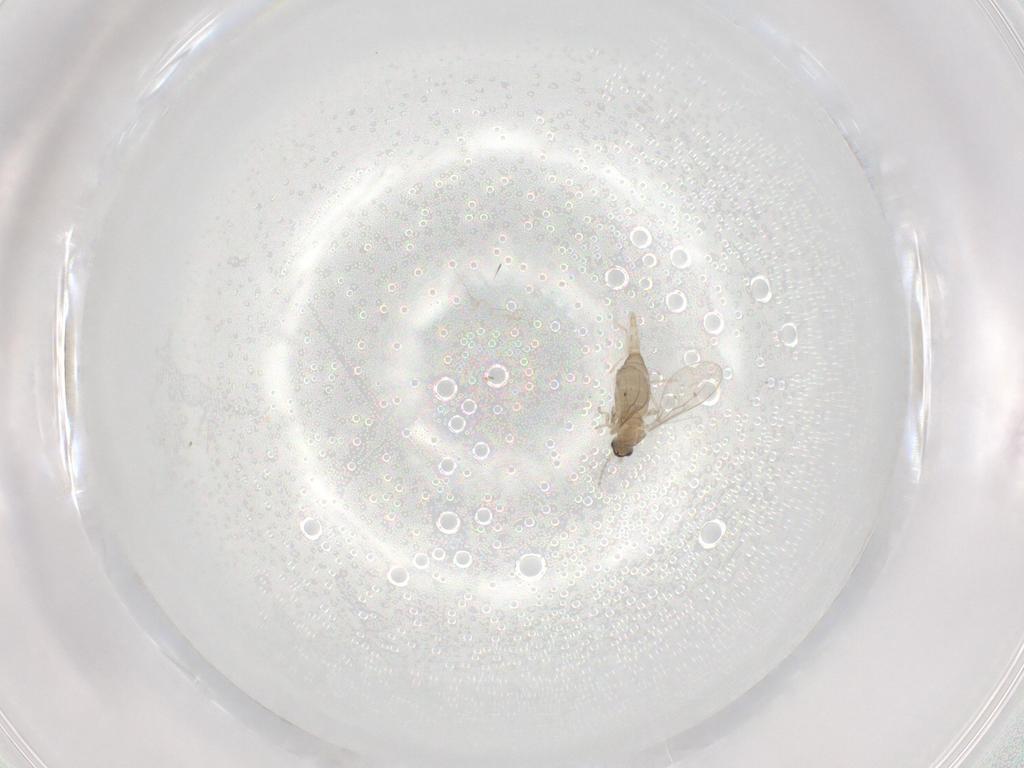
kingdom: Animalia
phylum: Arthropoda
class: Insecta
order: Diptera
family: Cecidomyiidae
